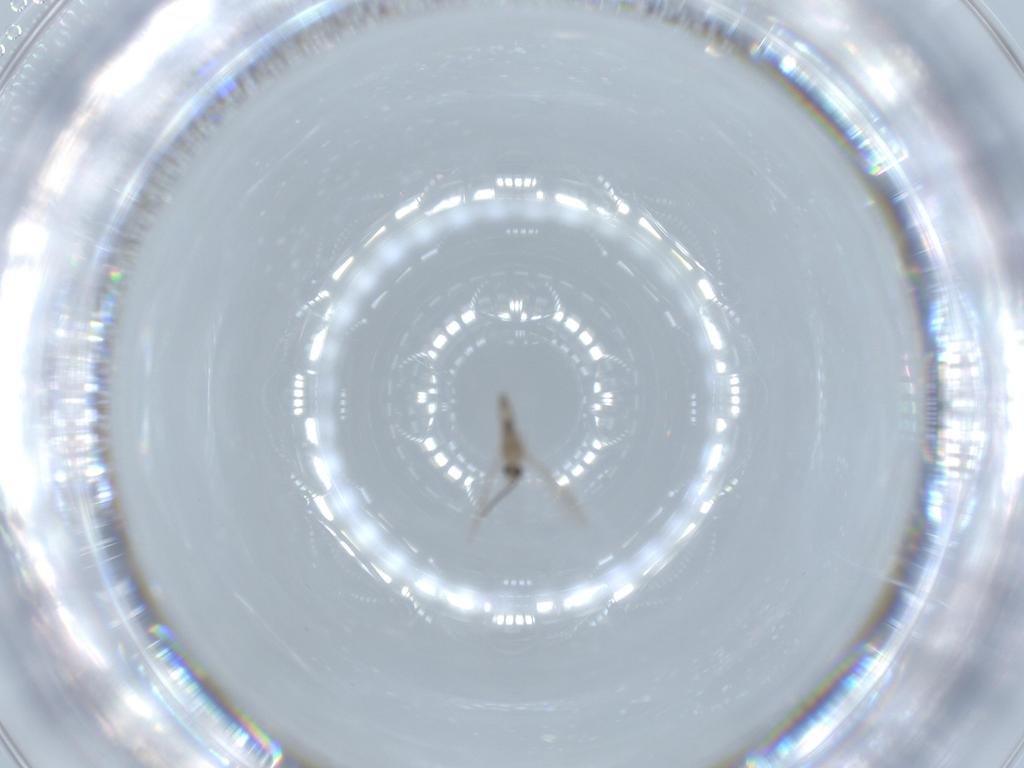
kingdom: Animalia
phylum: Arthropoda
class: Insecta
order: Diptera
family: Cecidomyiidae
